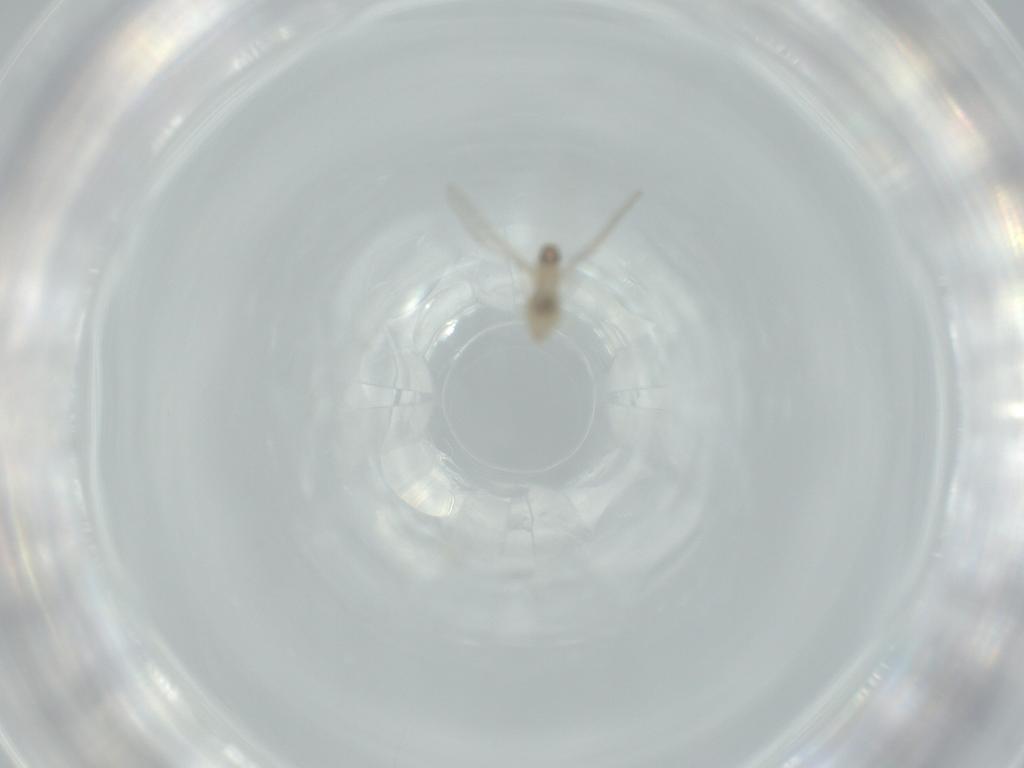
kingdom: Animalia
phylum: Arthropoda
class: Insecta
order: Diptera
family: Cecidomyiidae
